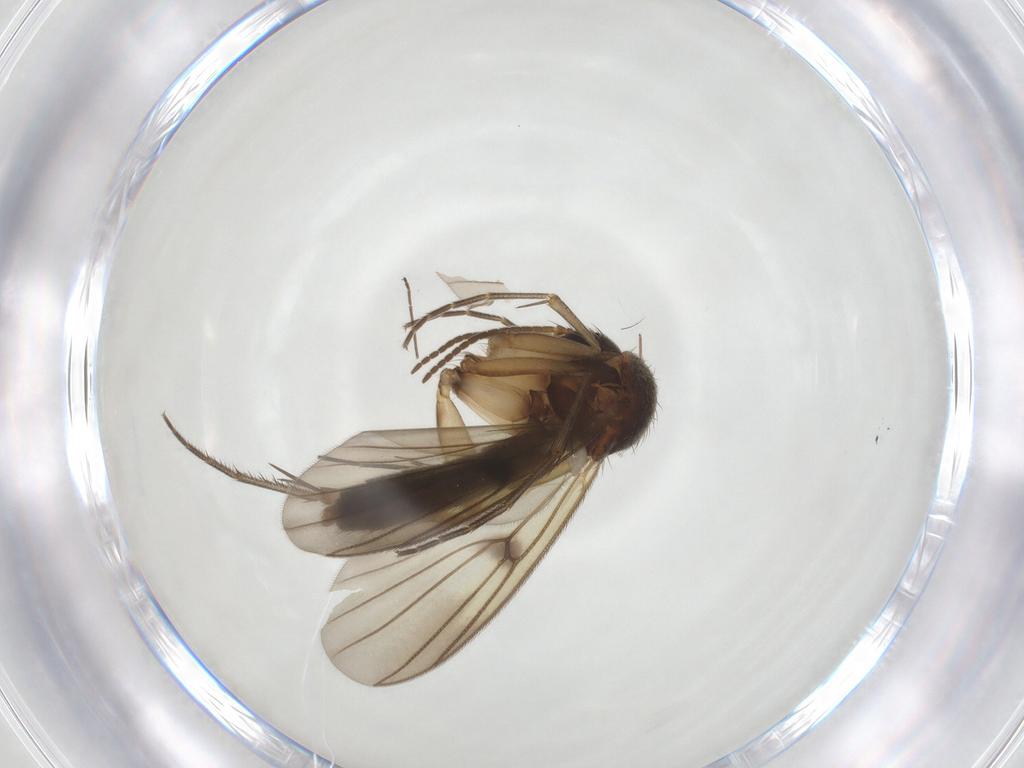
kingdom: Animalia
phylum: Arthropoda
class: Insecta
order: Diptera
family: Mycetophilidae
